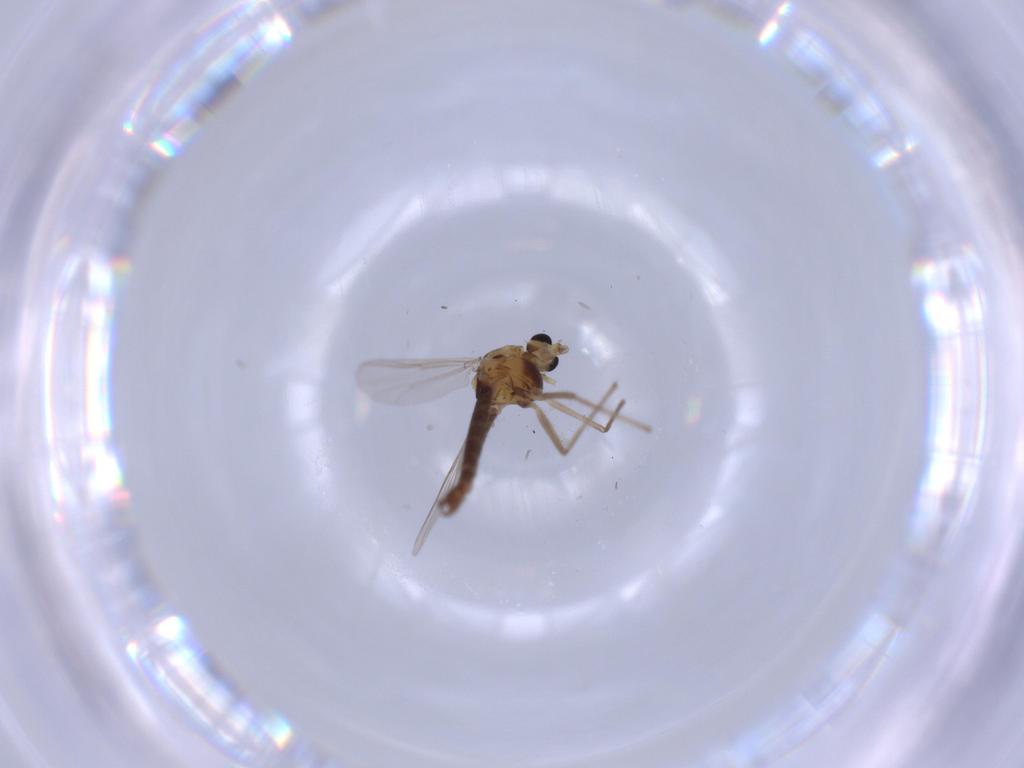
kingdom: Animalia
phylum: Arthropoda
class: Insecta
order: Diptera
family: Chironomidae
